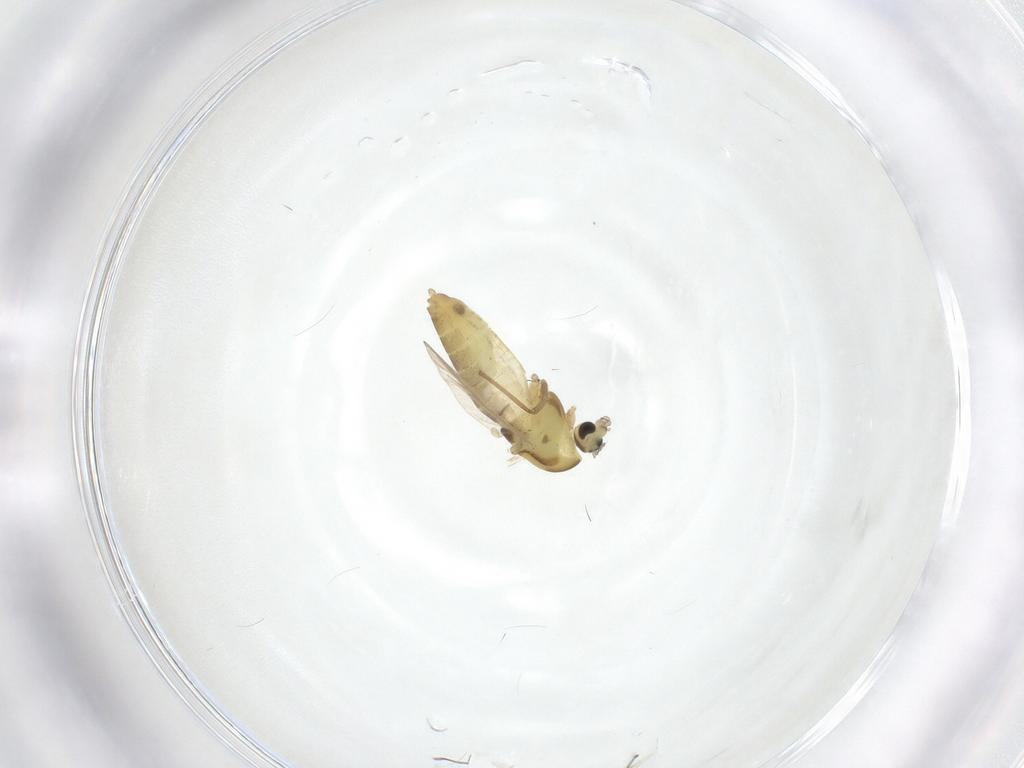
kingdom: Animalia
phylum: Arthropoda
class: Insecta
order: Diptera
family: Chironomidae
